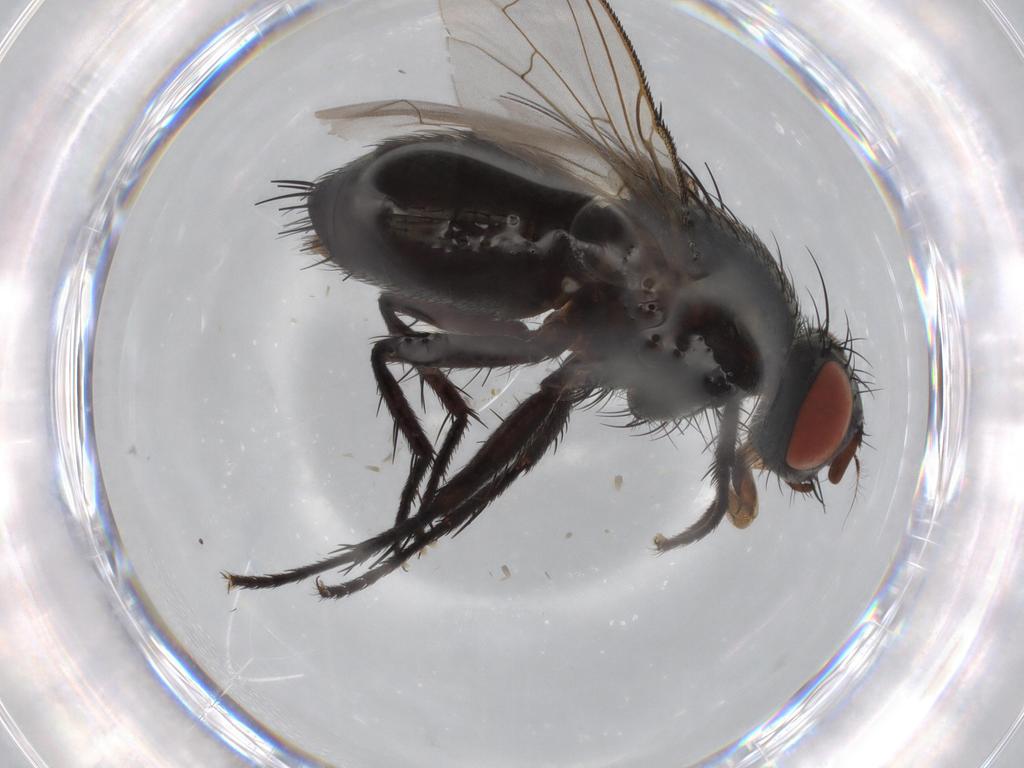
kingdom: Animalia
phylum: Arthropoda
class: Insecta
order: Diptera
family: Sarcophagidae
